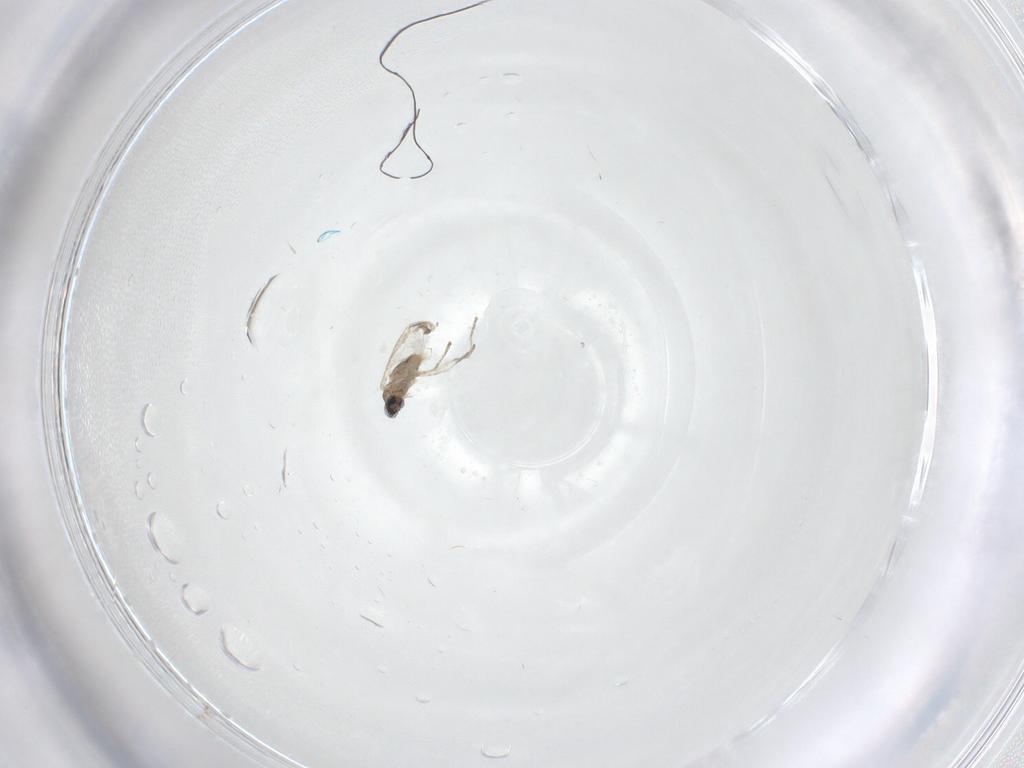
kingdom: Animalia
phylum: Arthropoda
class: Insecta
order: Diptera
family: Cecidomyiidae
